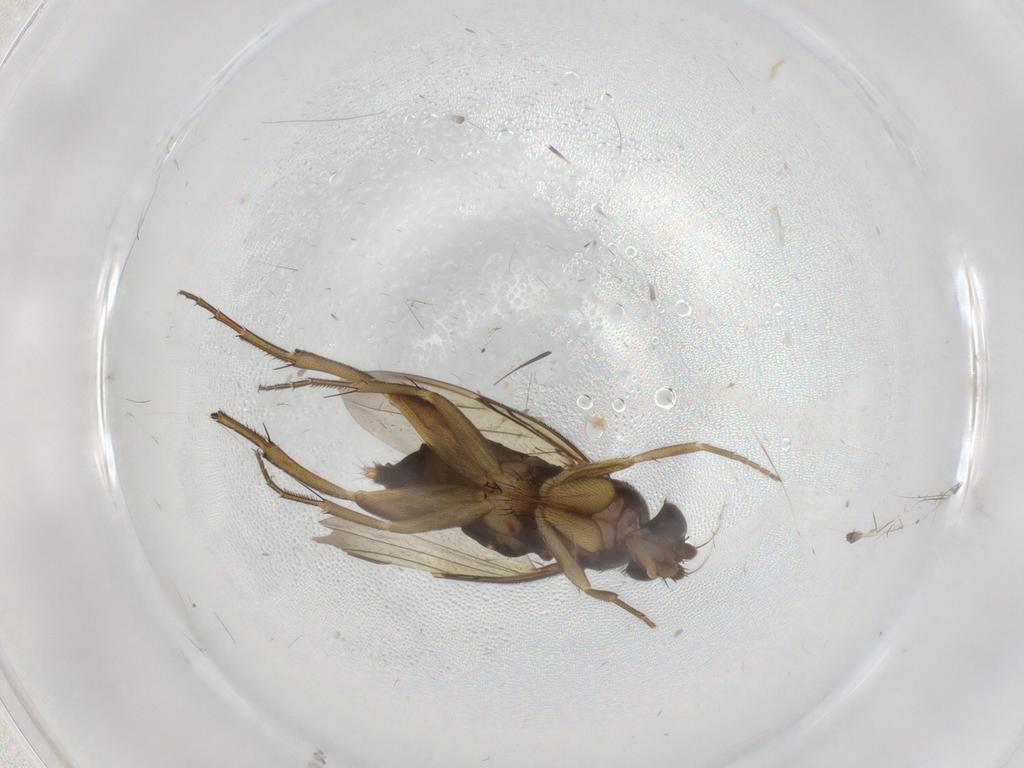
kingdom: Animalia
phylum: Arthropoda
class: Insecta
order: Diptera
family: Phoridae
